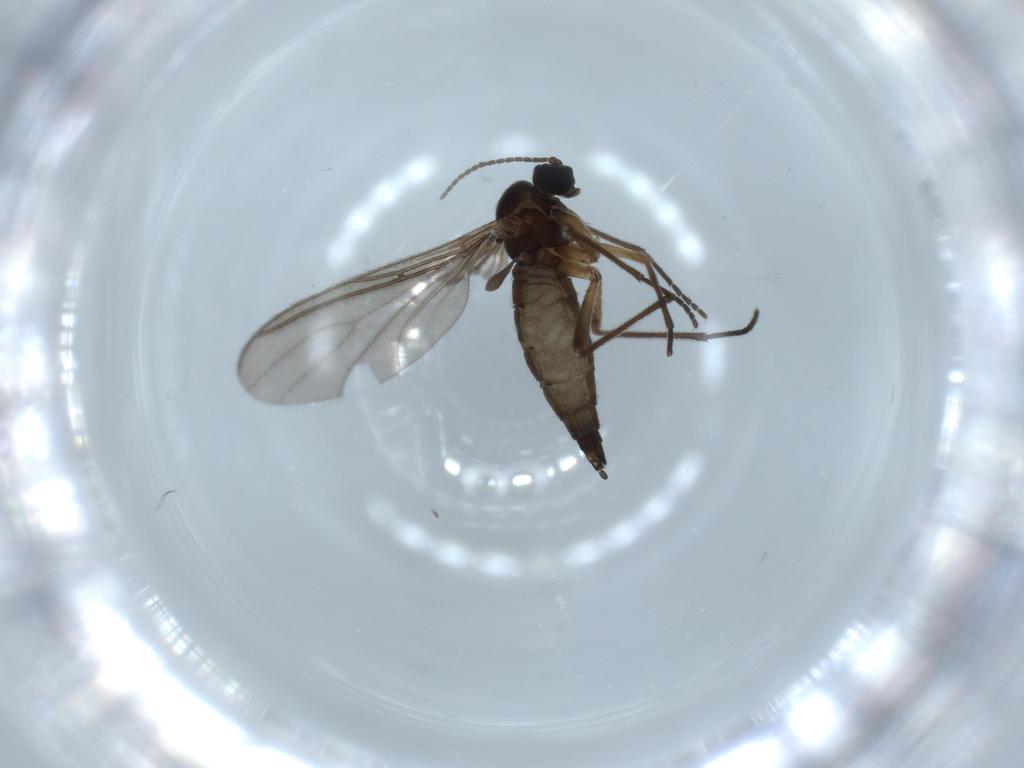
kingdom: Animalia
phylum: Arthropoda
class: Insecta
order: Diptera
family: Sciaridae
